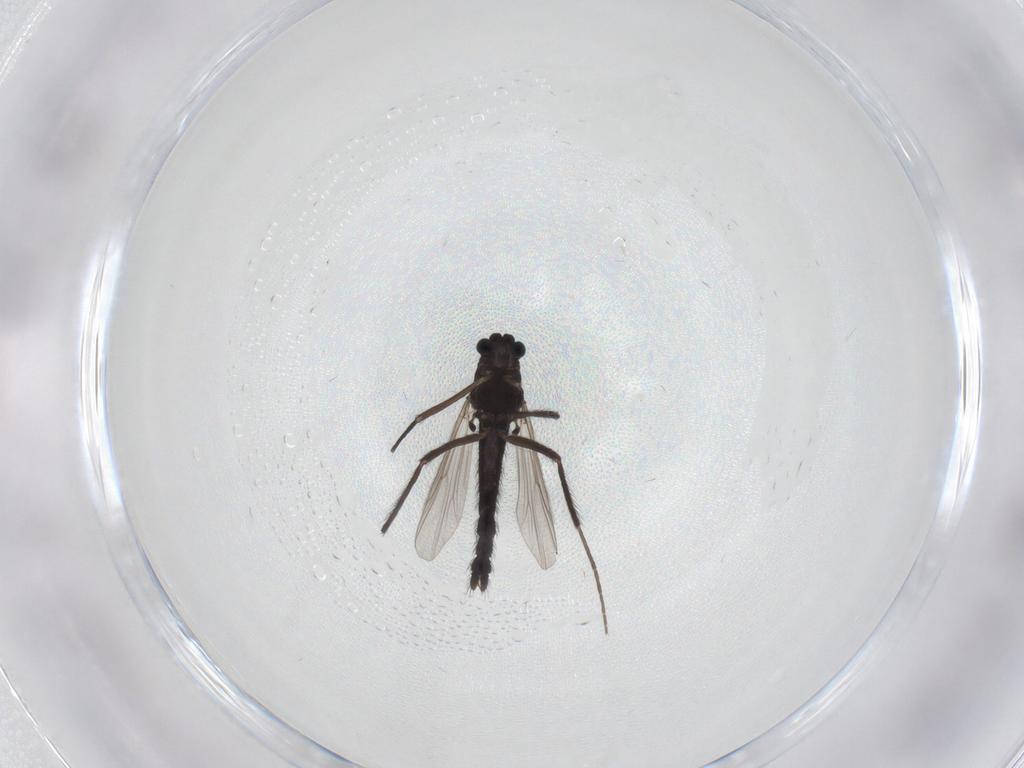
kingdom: Animalia
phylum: Arthropoda
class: Insecta
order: Diptera
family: Chironomidae
